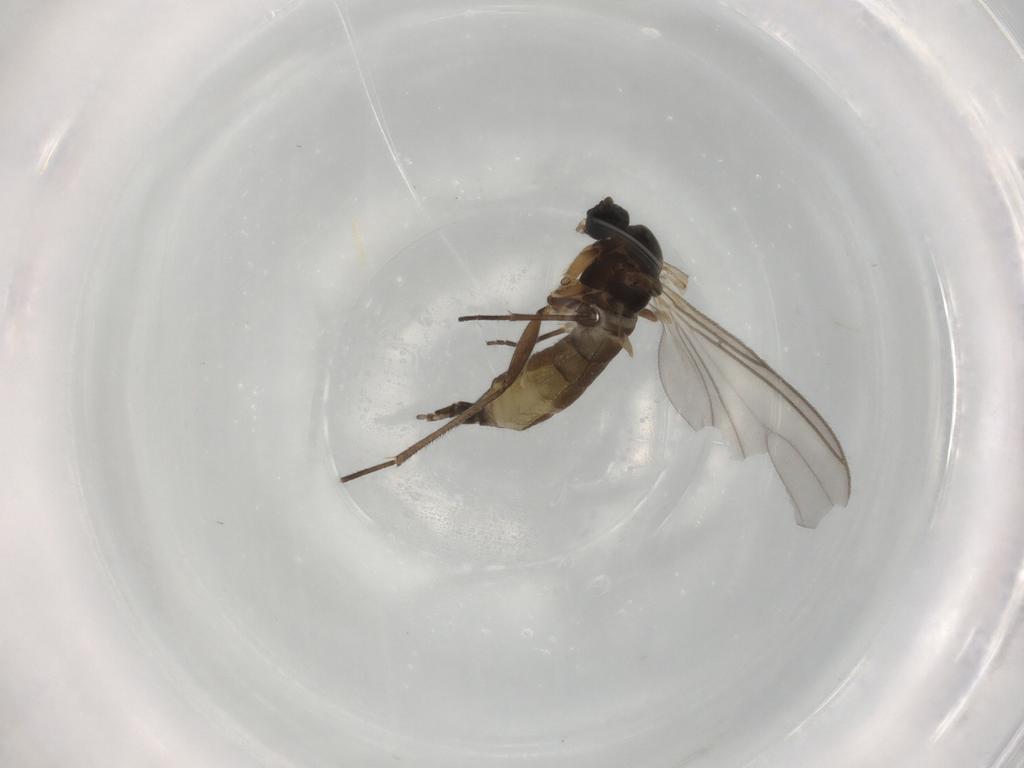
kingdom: Animalia
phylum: Arthropoda
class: Insecta
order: Diptera
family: Sciaridae
